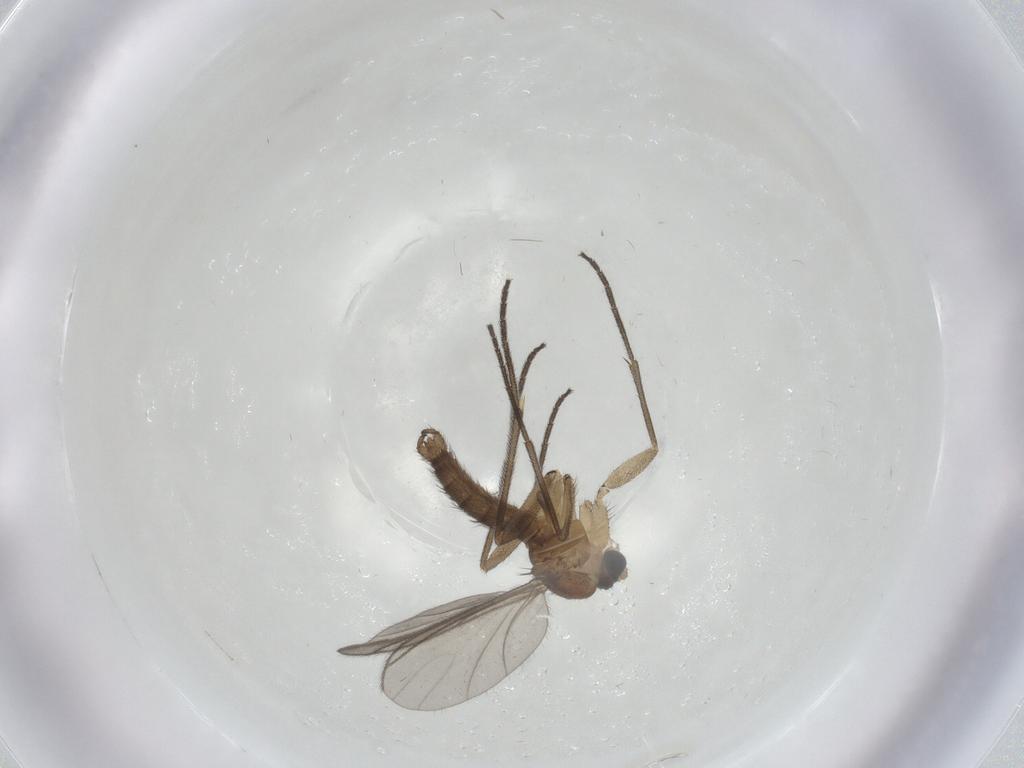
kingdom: Animalia
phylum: Arthropoda
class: Insecta
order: Diptera
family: Sciaridae
